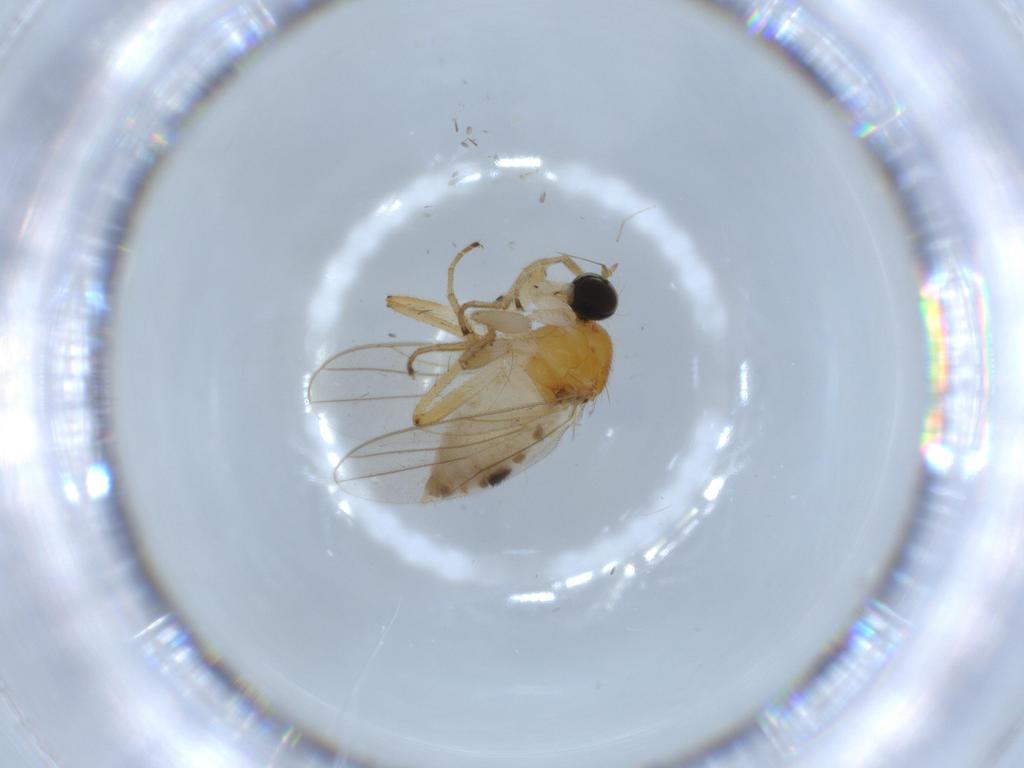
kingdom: Animalia
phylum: Arthropoda
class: Insecta
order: Diptera
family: Hybotidae
